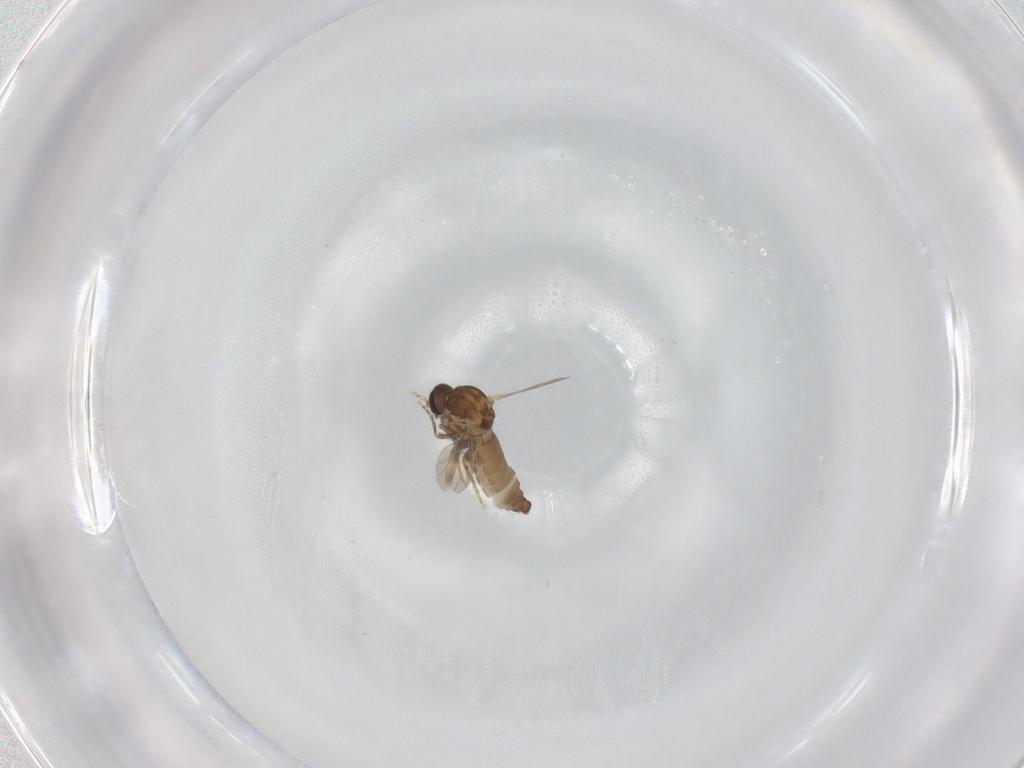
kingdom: Animalia
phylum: Arthropoda
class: Insecta
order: Diptera
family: Ceratopogonidae
